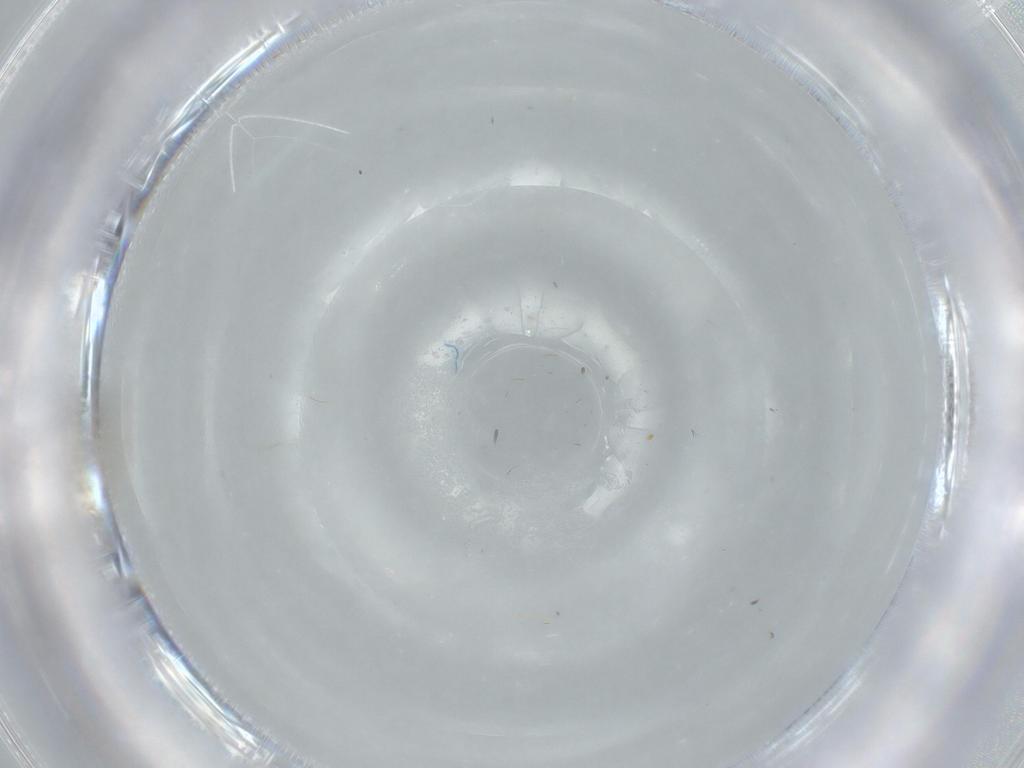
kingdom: Animalia
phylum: Arthropoda
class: Insecta
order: Diptera
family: Cecidomyiidae
